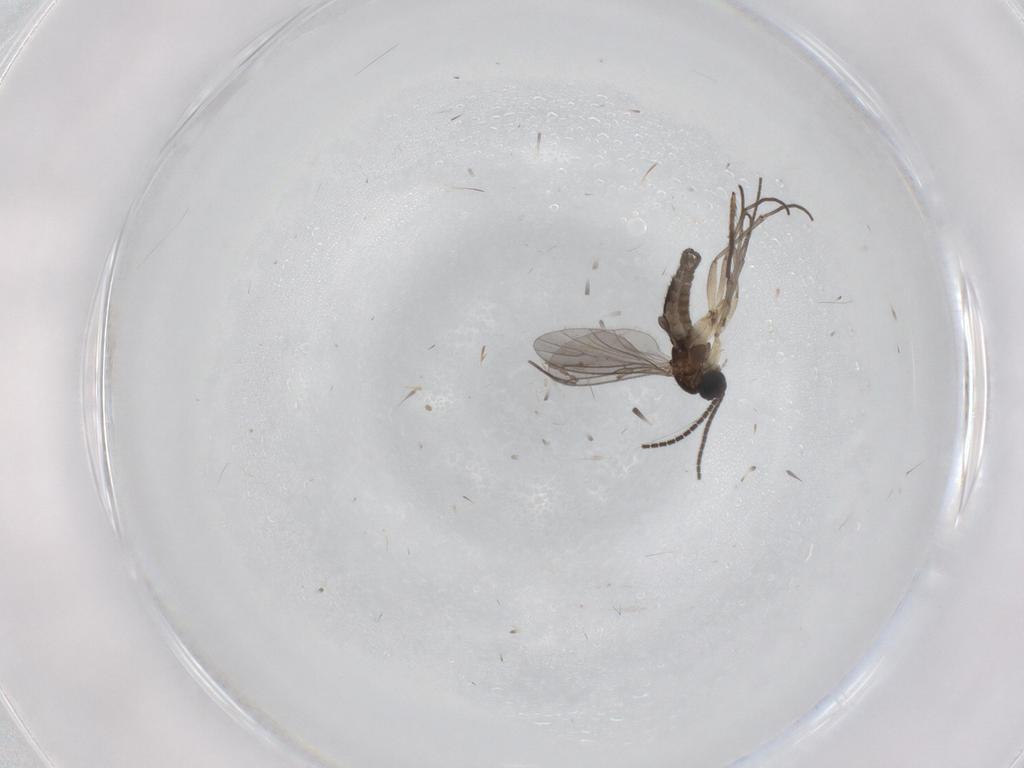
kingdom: Animalia
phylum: Arthropoda
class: Insecta
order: Diptera
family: Sciaridae
